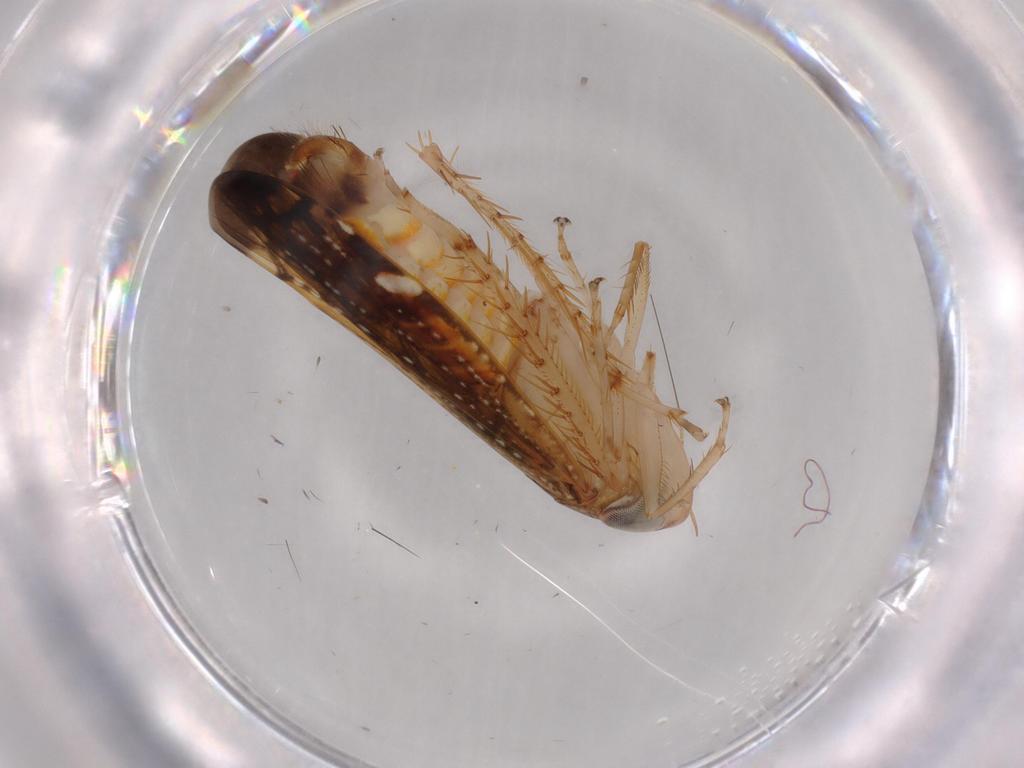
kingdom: Animalia
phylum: Arthropoda
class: Insecta
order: Hemiptera
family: Cicadellidae
